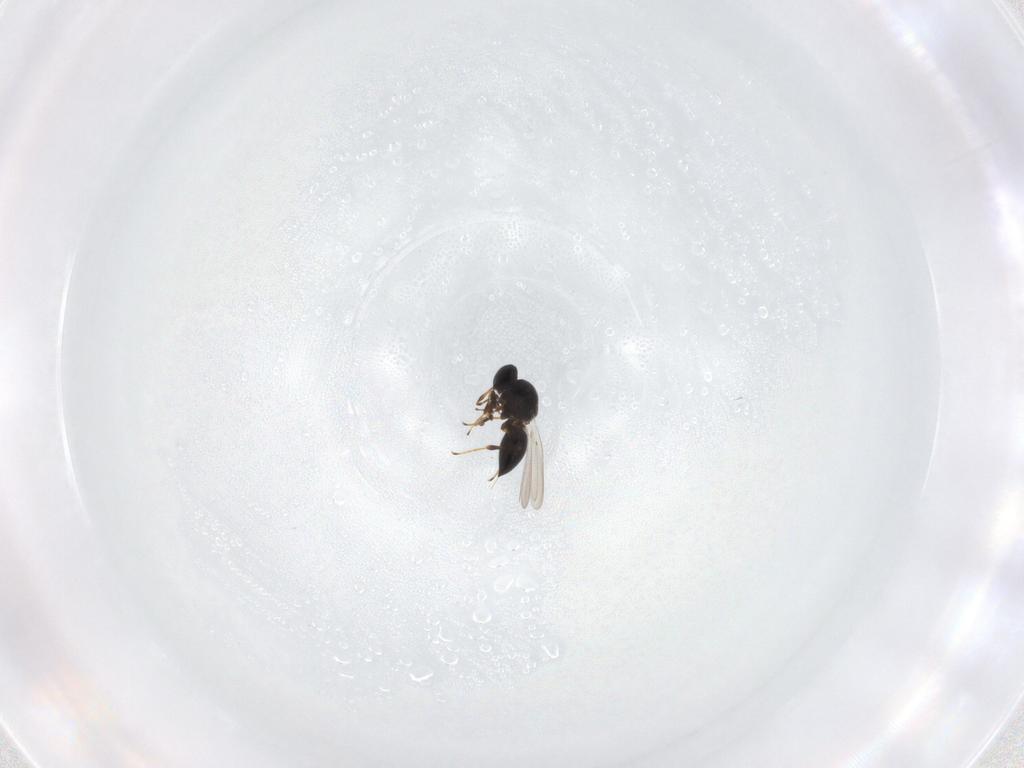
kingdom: Animalia
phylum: Arthropoda
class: Insecta
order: Hymenoptera
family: Platygastridae
